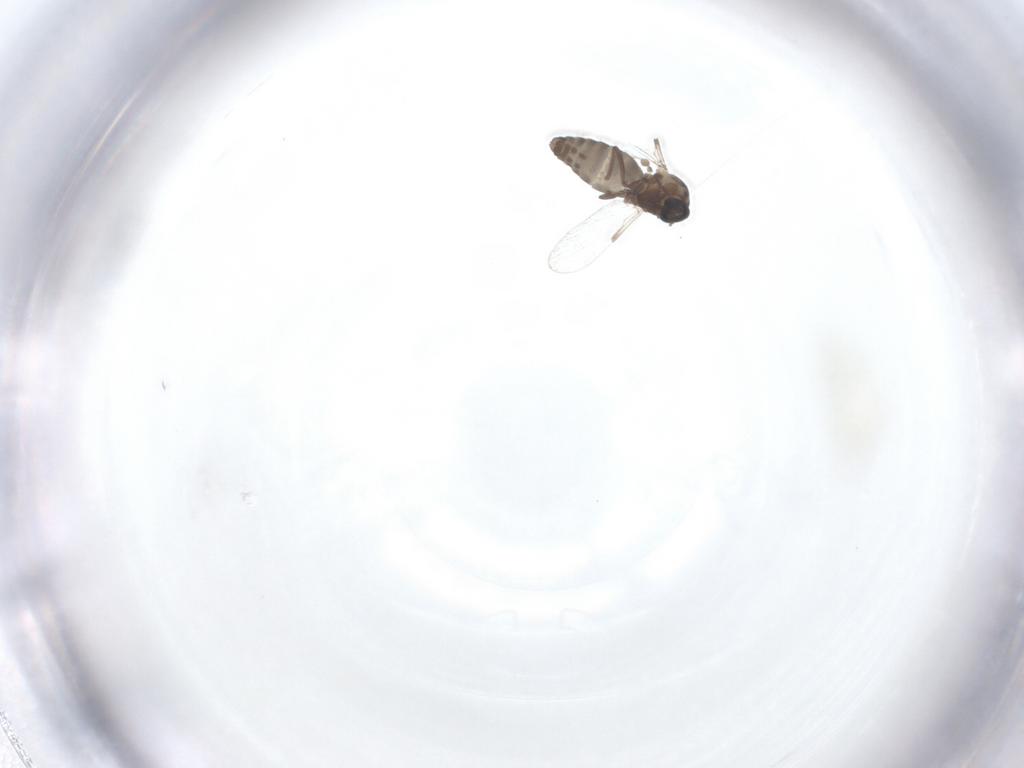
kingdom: Animalia
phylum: Arthropoda
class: Insecta
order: Diptera
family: Ceratopogonidae
